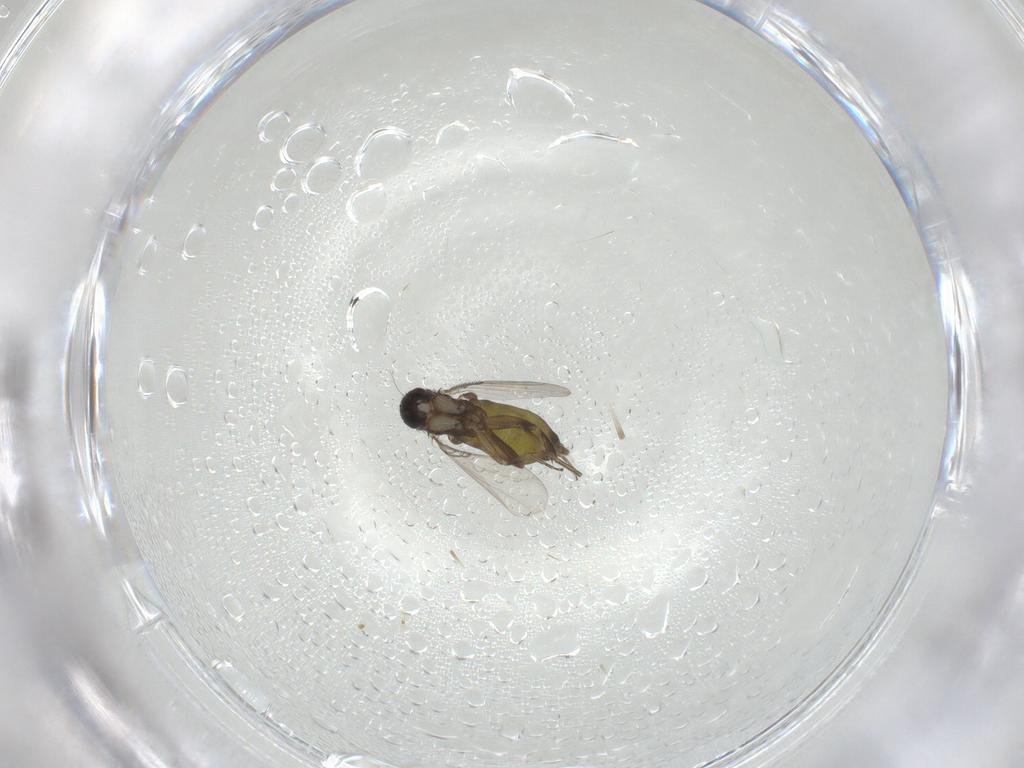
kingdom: Animalia
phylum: Arthropoda
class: Insecta
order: Diptera
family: Phoridae
